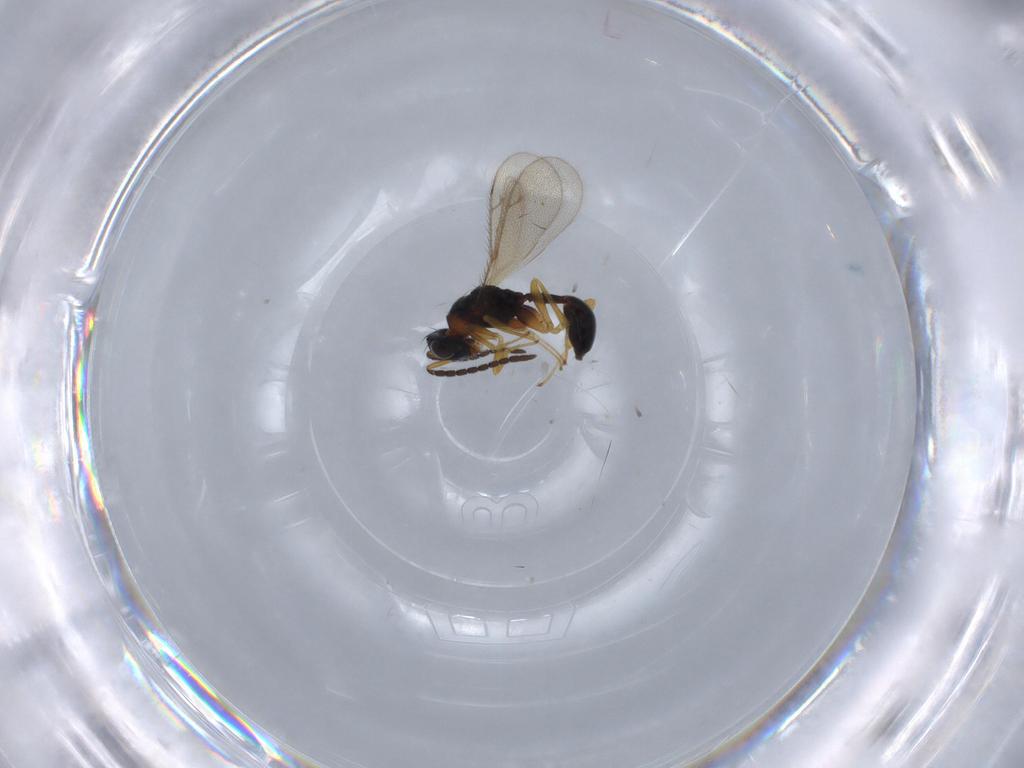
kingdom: Animalia
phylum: Arthropoda
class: Insecta
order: Hymenoptera
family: Diparidae
